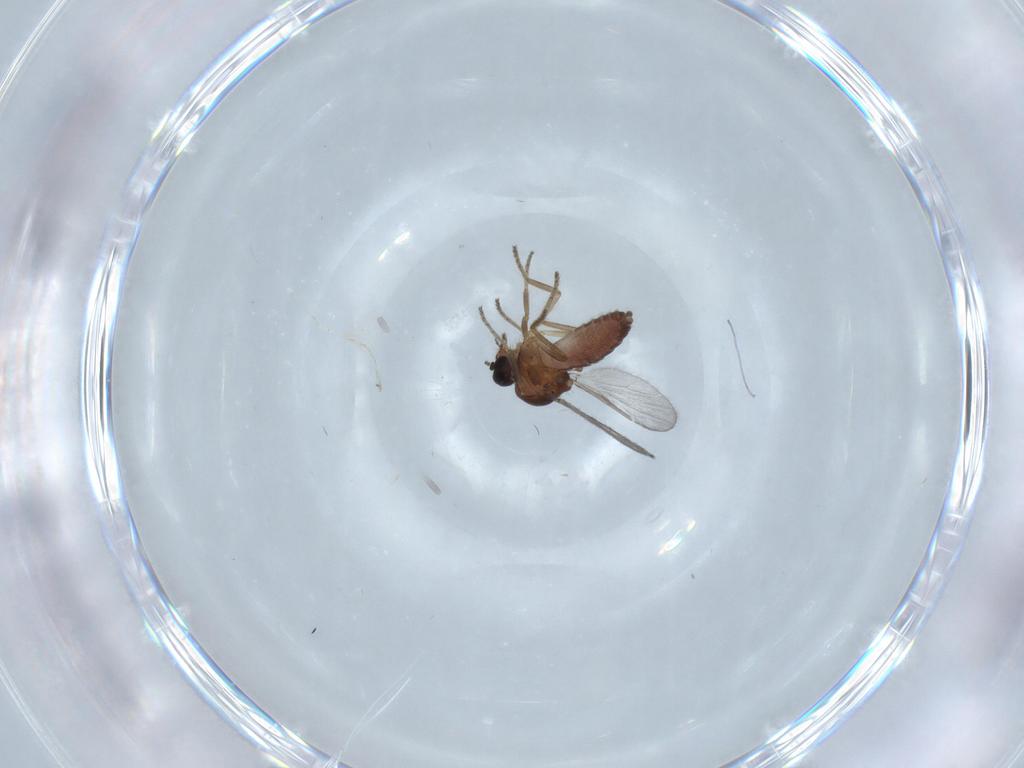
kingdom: Animalia
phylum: Arthropoda
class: Insecta
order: Diptera
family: Ceratopogonidae
